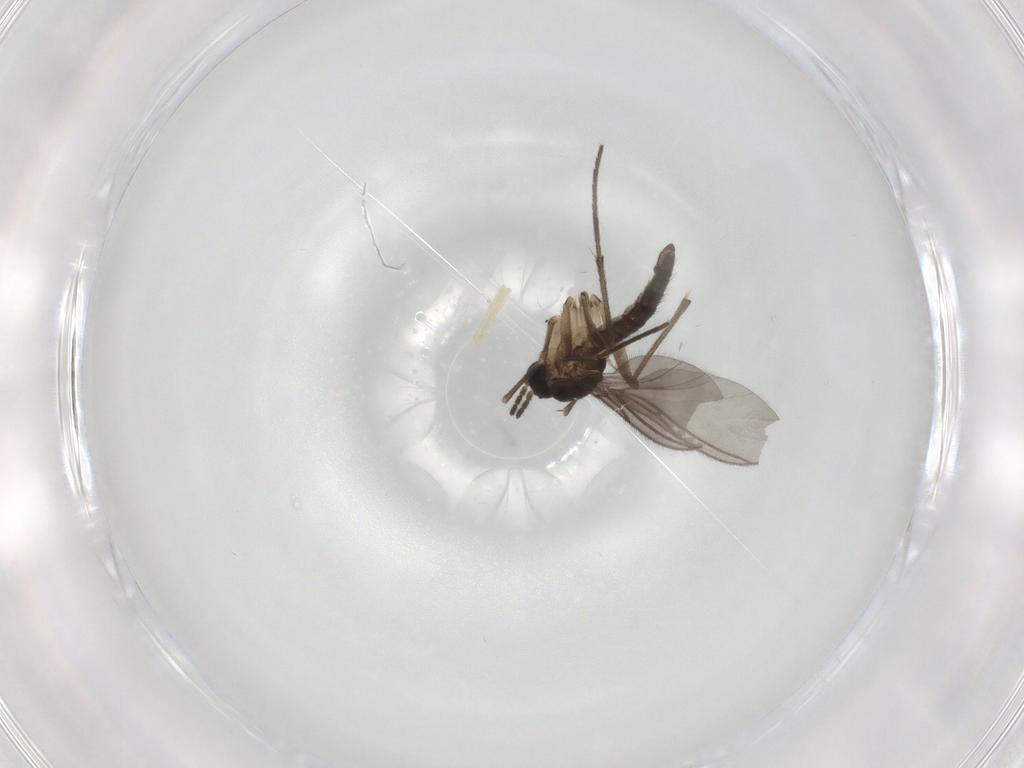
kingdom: Animalia
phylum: Arthropoda
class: Insecta
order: Diptera
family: Sciaridae
